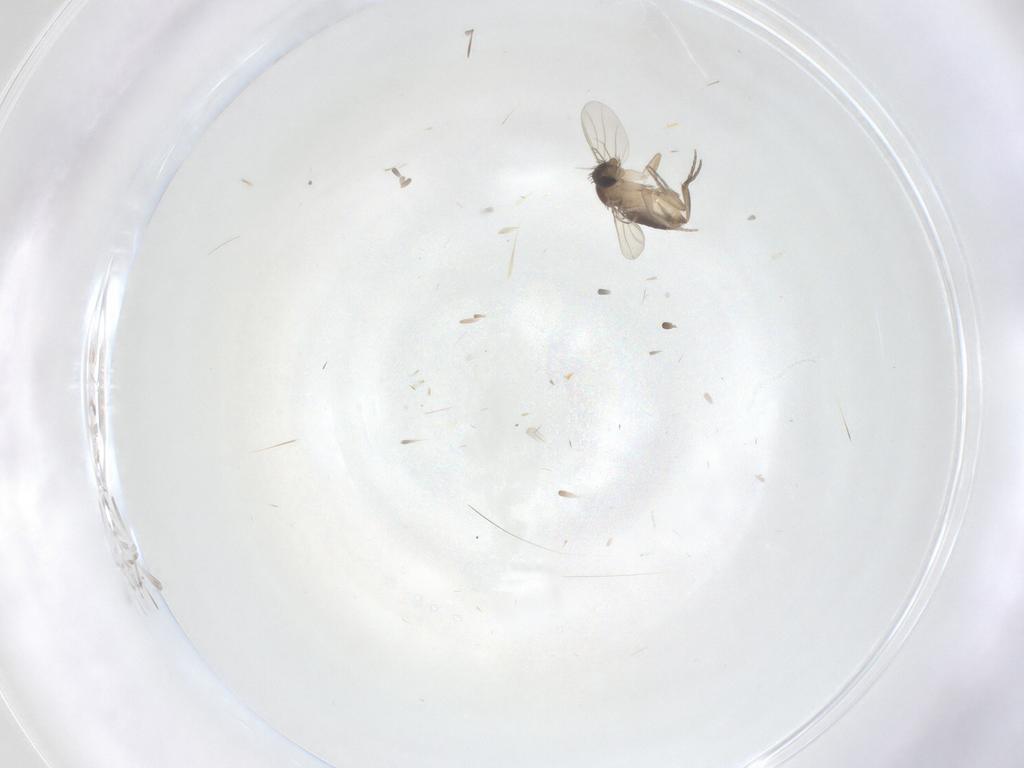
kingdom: Animalia
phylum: Arthropoda
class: Insecta
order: Diptera
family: Phoridae
